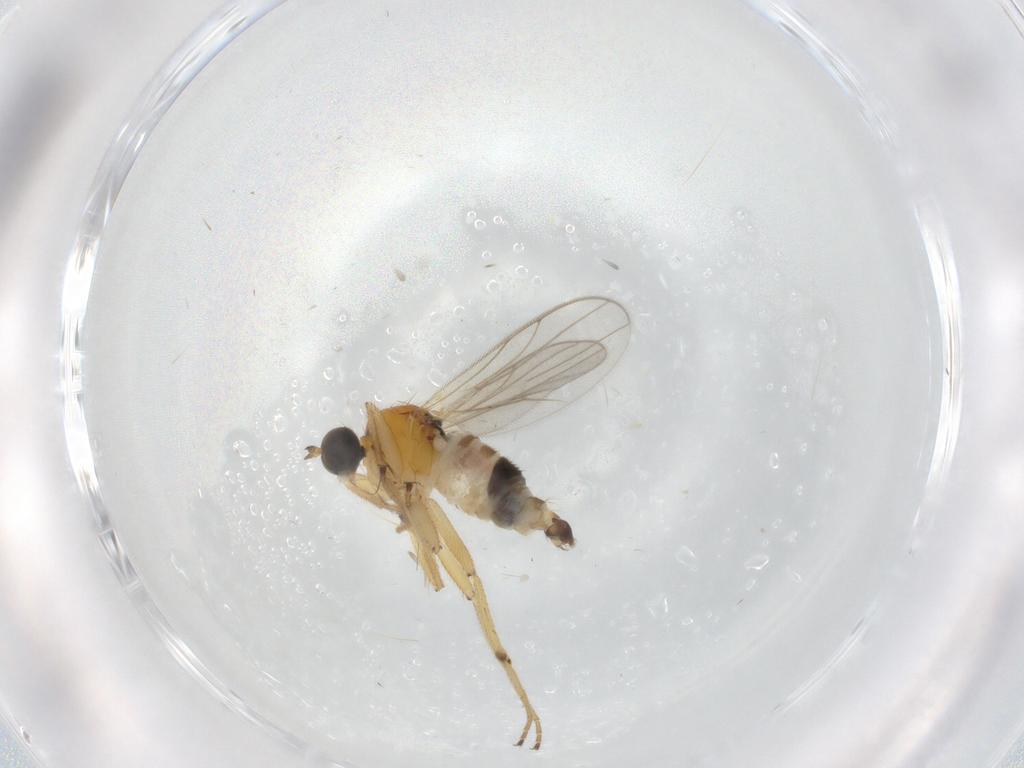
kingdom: Animalia
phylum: Arthropoda
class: Insecta
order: Diptera
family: Hybotidae
